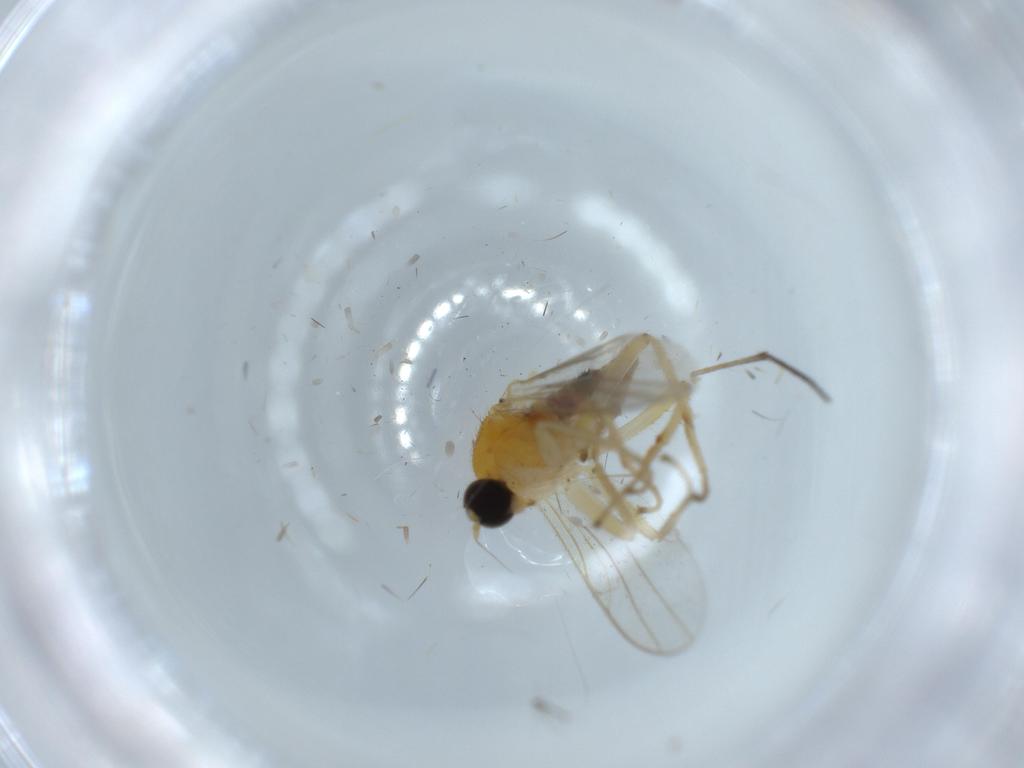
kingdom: Animalia
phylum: Arthropoda
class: Insecta
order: Diptera
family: Hybotidae
